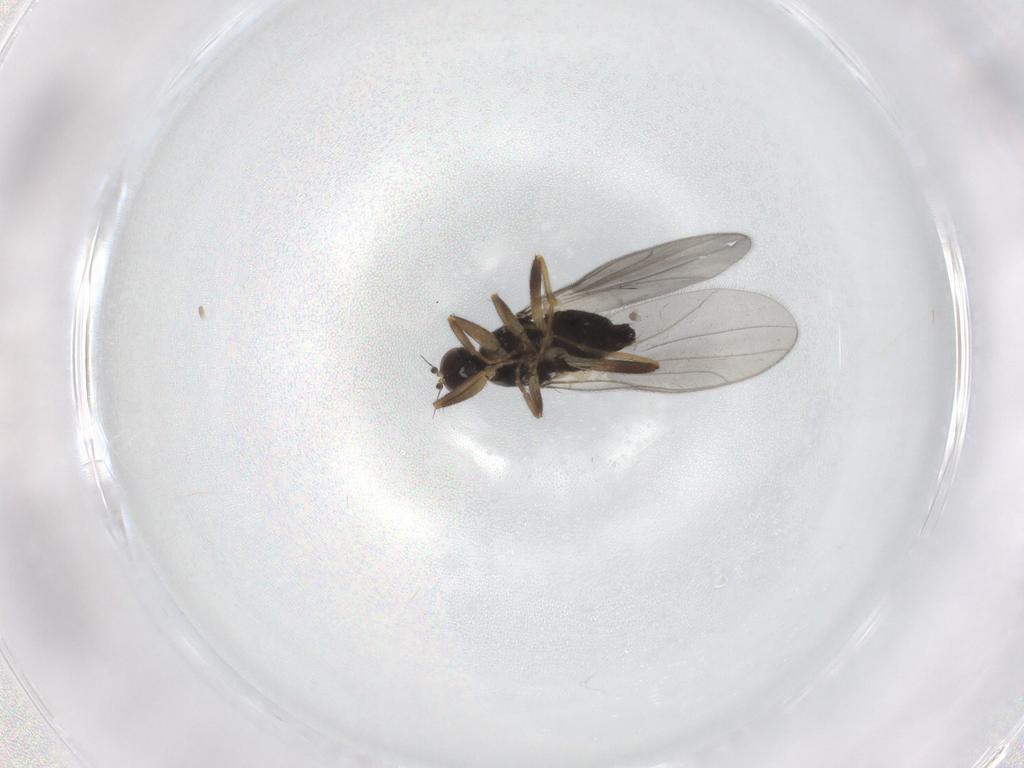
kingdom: Animalia
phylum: Arthropoda
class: Insecta
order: Diptera
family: Hybotidae
